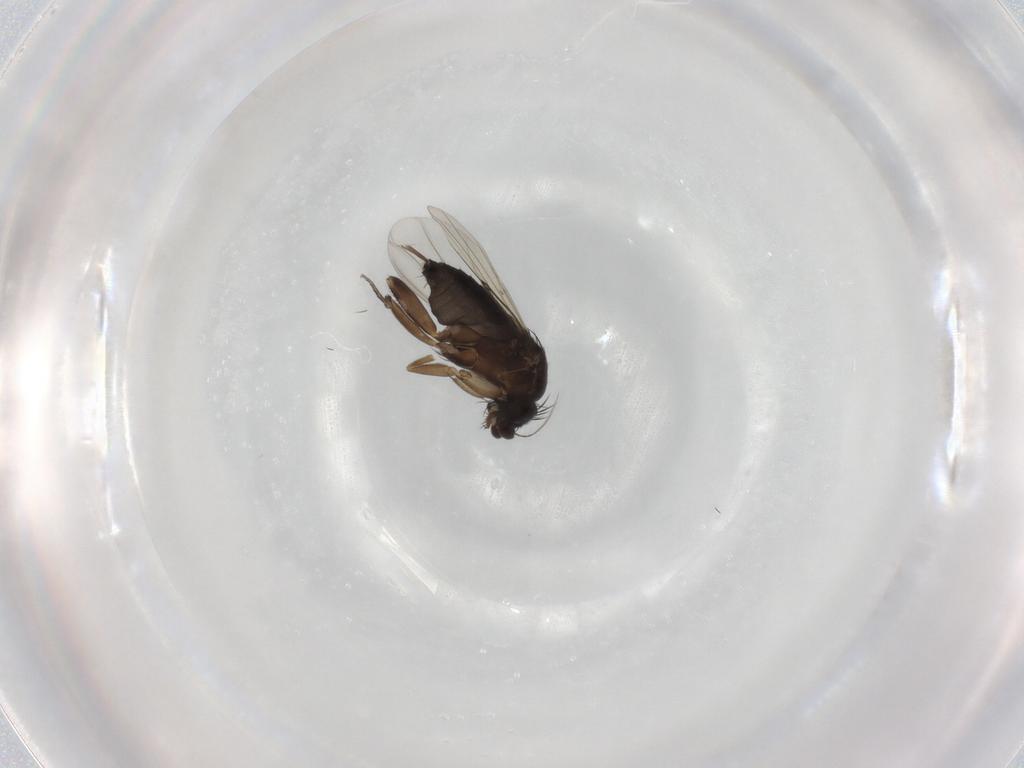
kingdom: Animalia
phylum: Arthropoda
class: Insecta
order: Diptera
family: Phoridae
